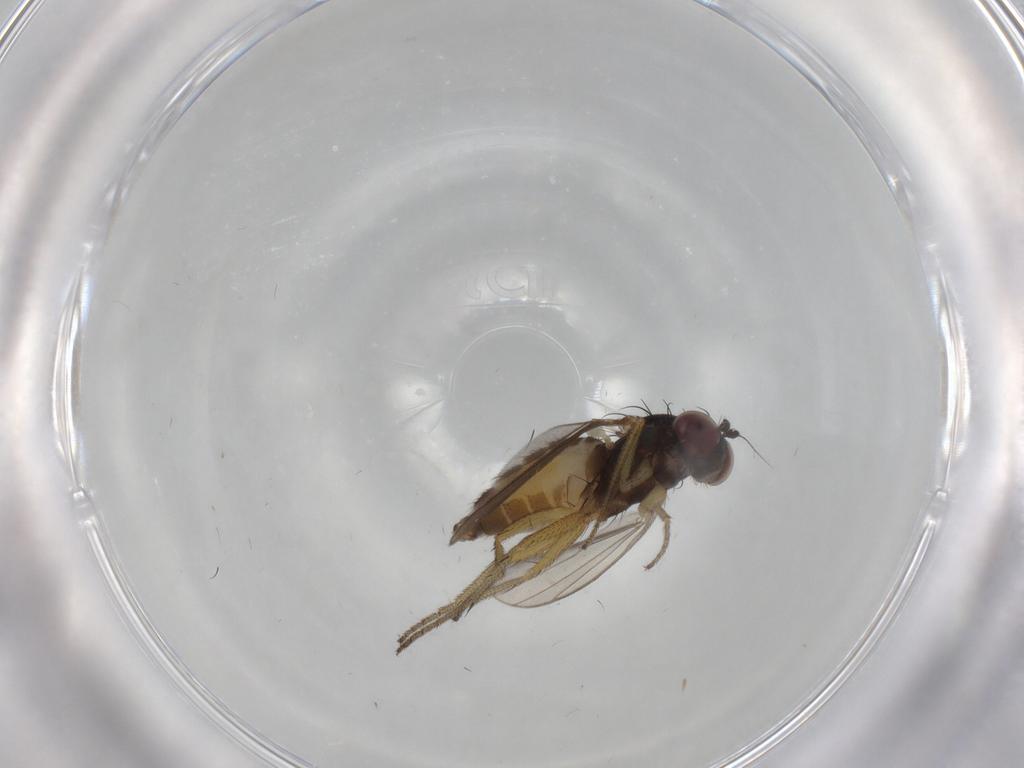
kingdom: Animalia
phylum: Arthropoda
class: Insecta
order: Diptera
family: Dolichopodidae
